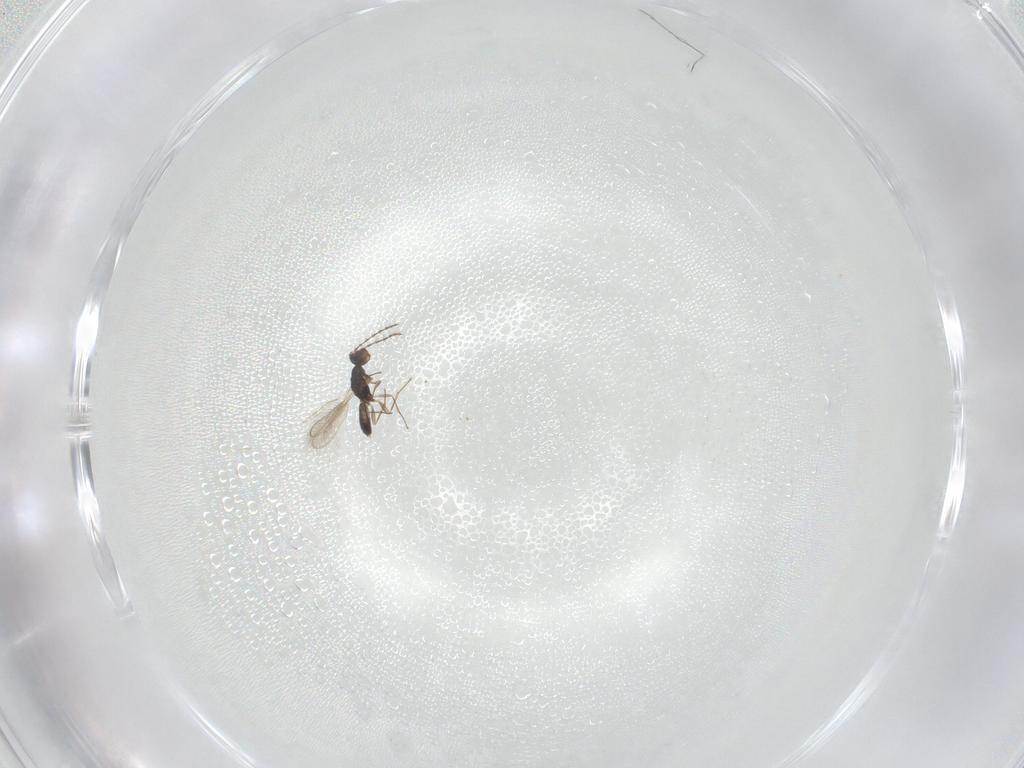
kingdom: Animalia
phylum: Arthropoda
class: Insecta
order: Hymenoptera
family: Pteromalidae
